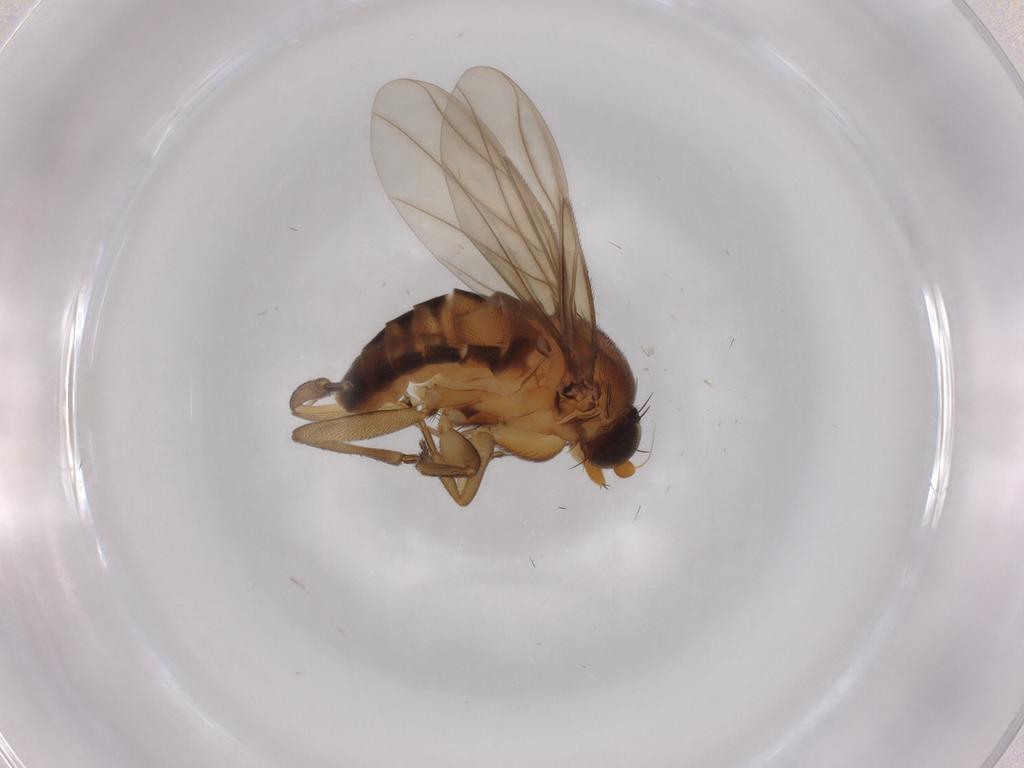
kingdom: Animalia
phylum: Arthropoda
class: Insecta
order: Diptera
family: Phoridae
